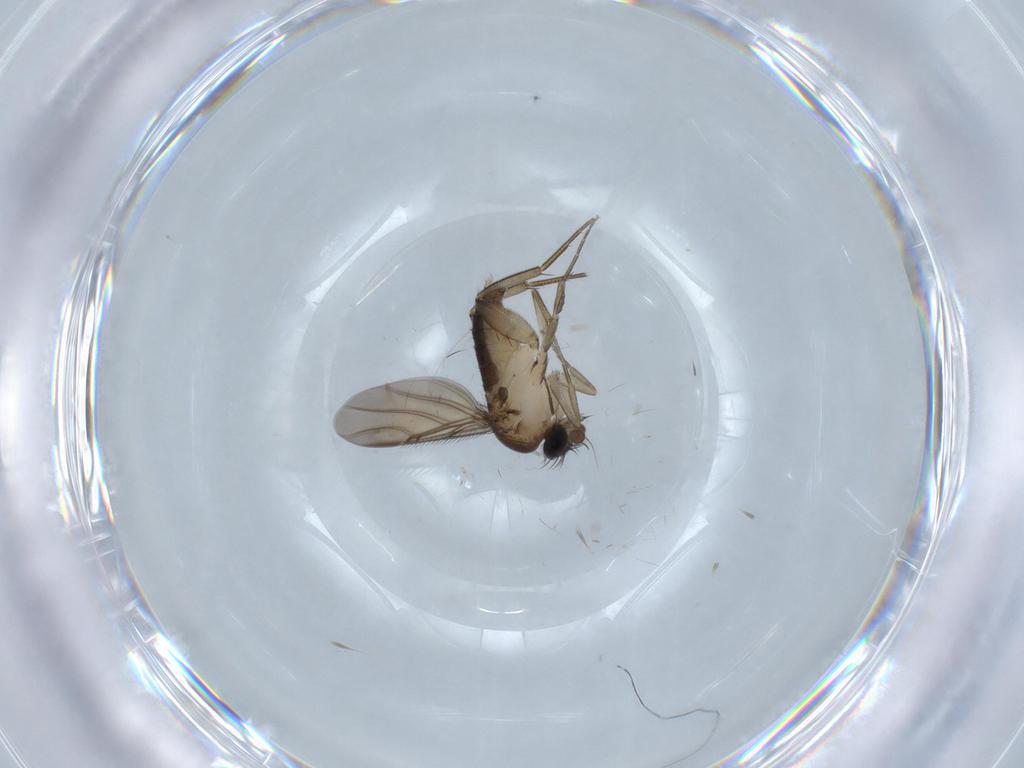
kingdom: Animalia
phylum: Arthropoda
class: Insecta
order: Diptera
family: Phoridae
